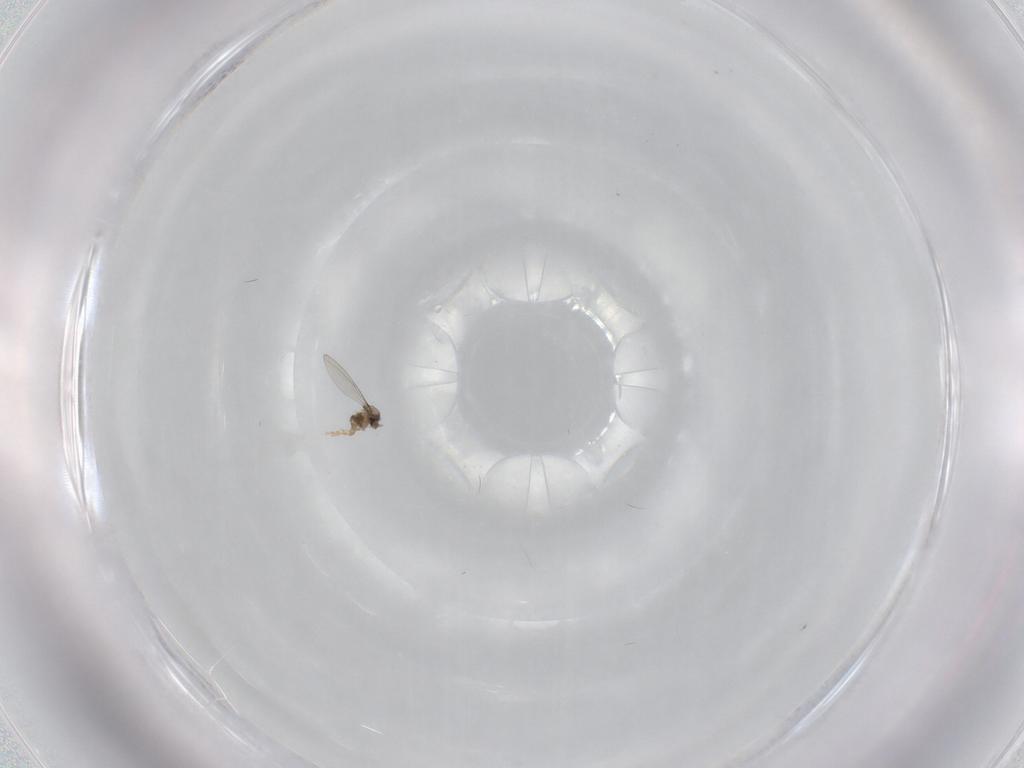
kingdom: Animalia
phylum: Arthropoda
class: Insecta
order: Diptera
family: Cecidomyiidae
